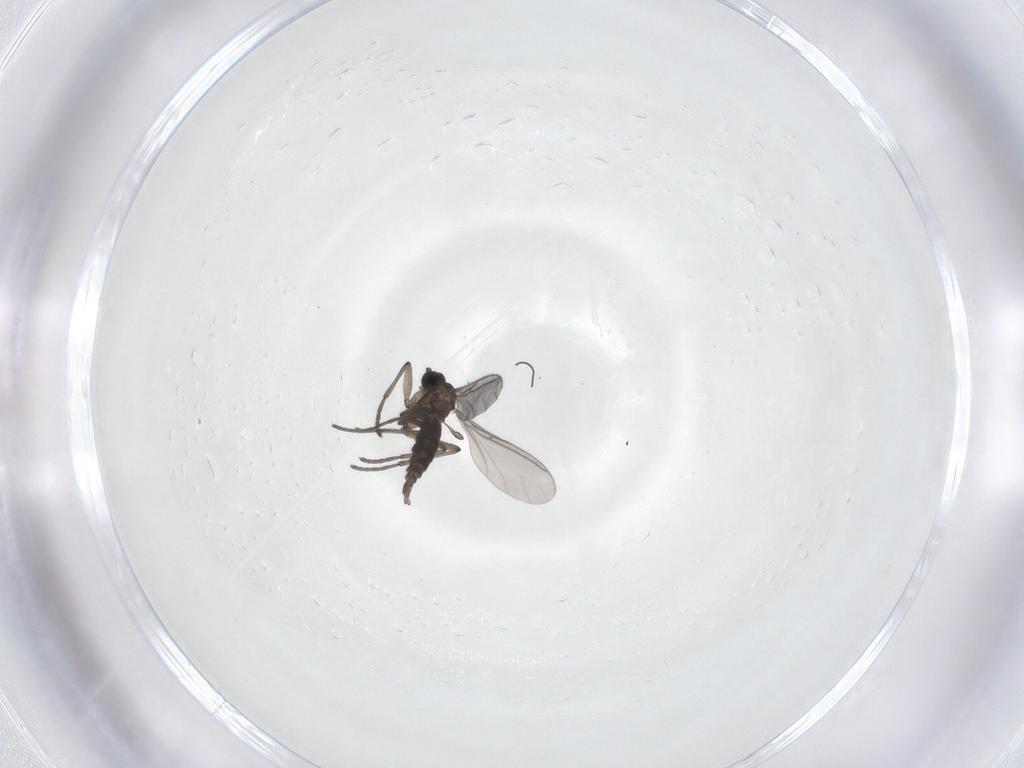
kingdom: Animalia
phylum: Arthropoda
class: Insecta
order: Diptera
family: Sciaridae
